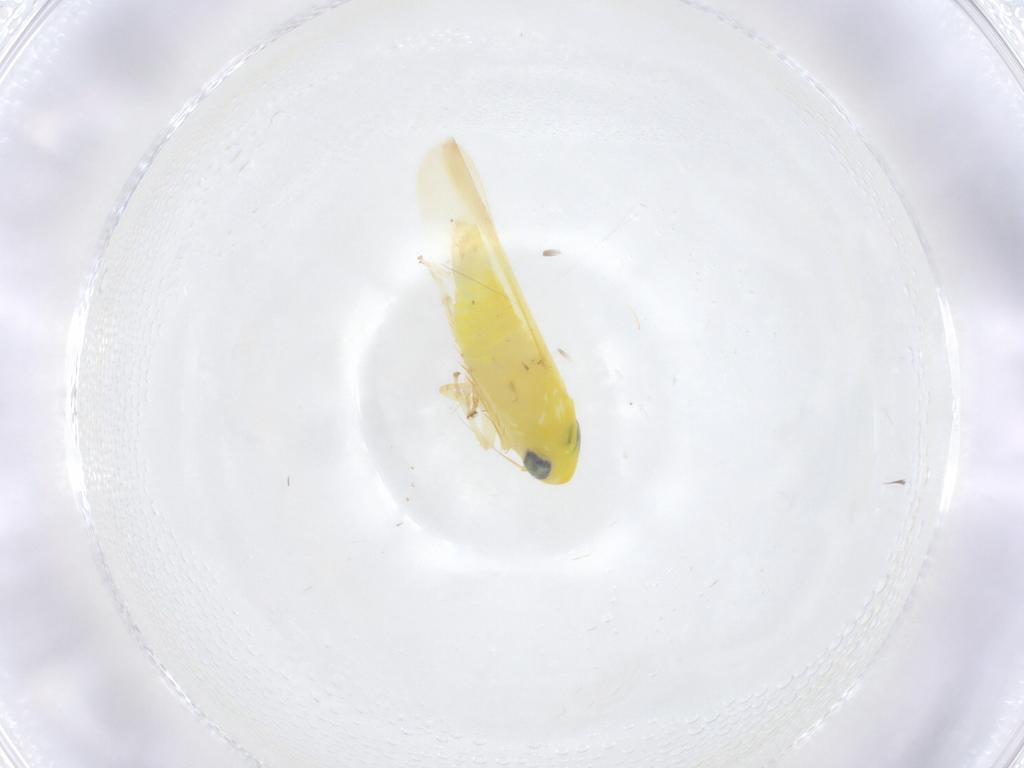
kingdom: Animalia
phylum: Arthropoda
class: Insecta
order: Hemiptera
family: Cicadellidae
